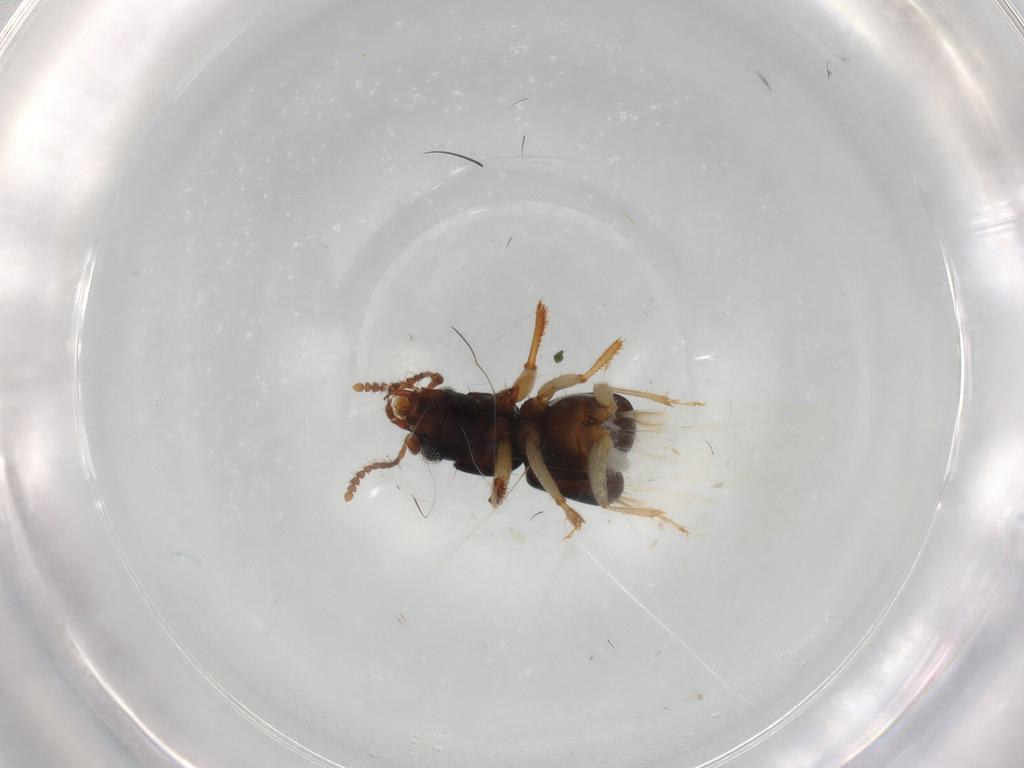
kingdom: Animalia
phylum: Arthropoda
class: Insecta
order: Coleoptera
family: Staphylinidae
